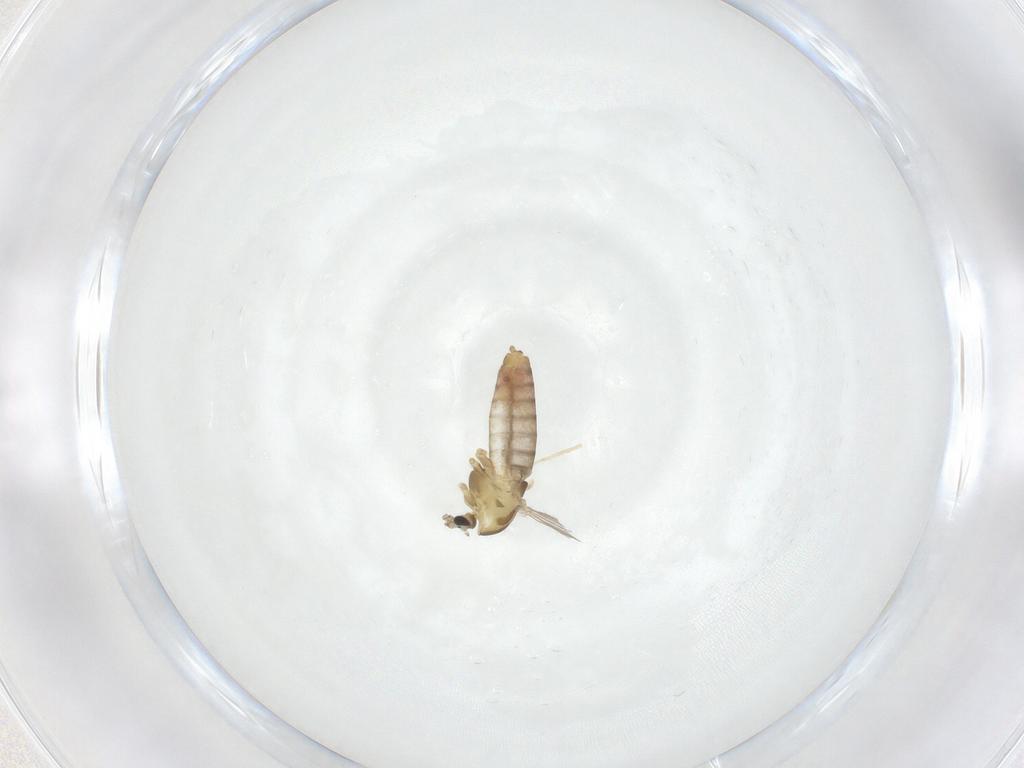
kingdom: Animalia
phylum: Arthropoda
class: Insecta
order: Diptera
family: Chironomidae
